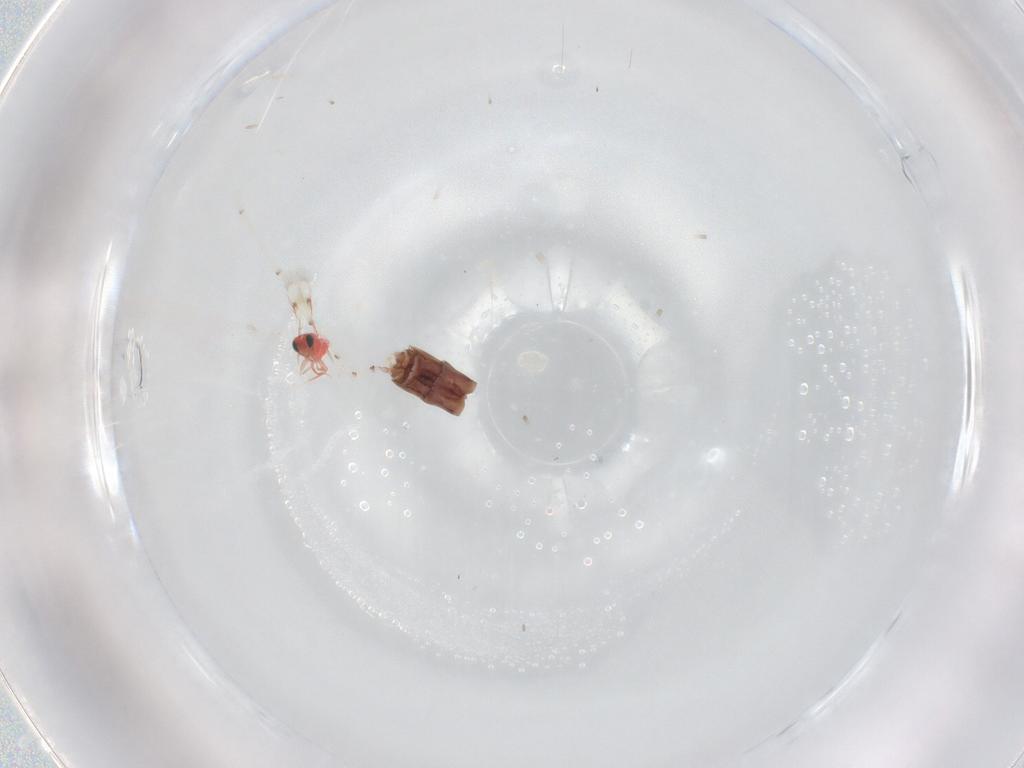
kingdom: Animalia
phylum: Arthropoda
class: Insecta
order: Hymenoptera
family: Trichogrammatidae
